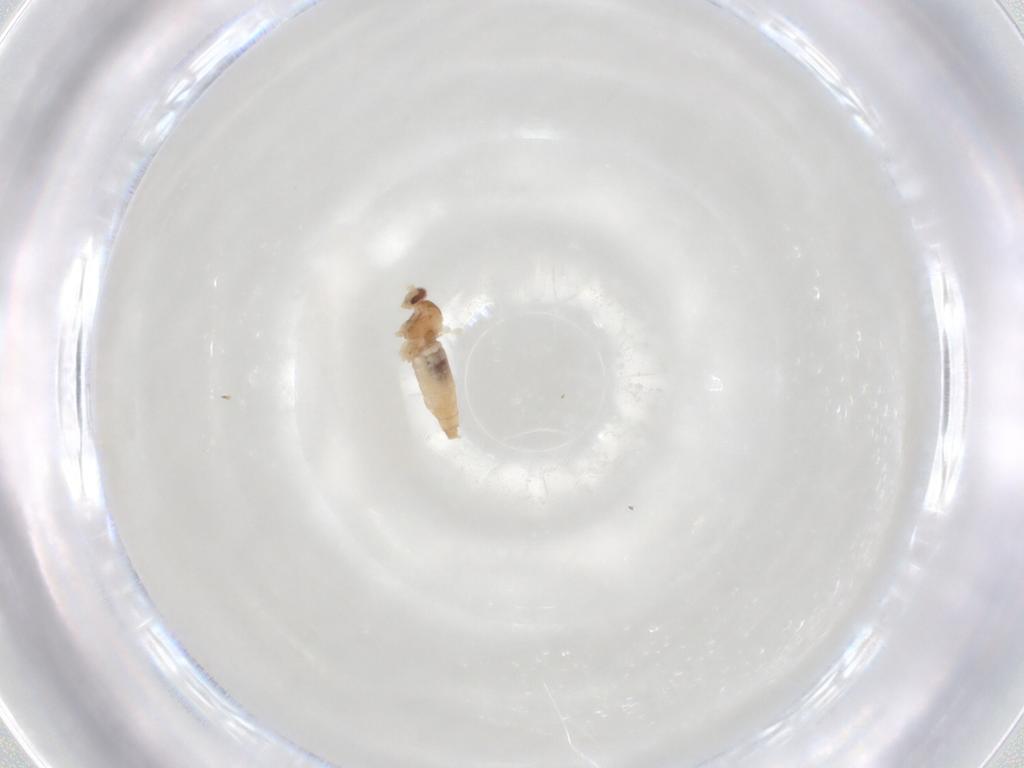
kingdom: Animalia
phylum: Arthropoda
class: Insecta
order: Diptera
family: Cecidomyiidae
